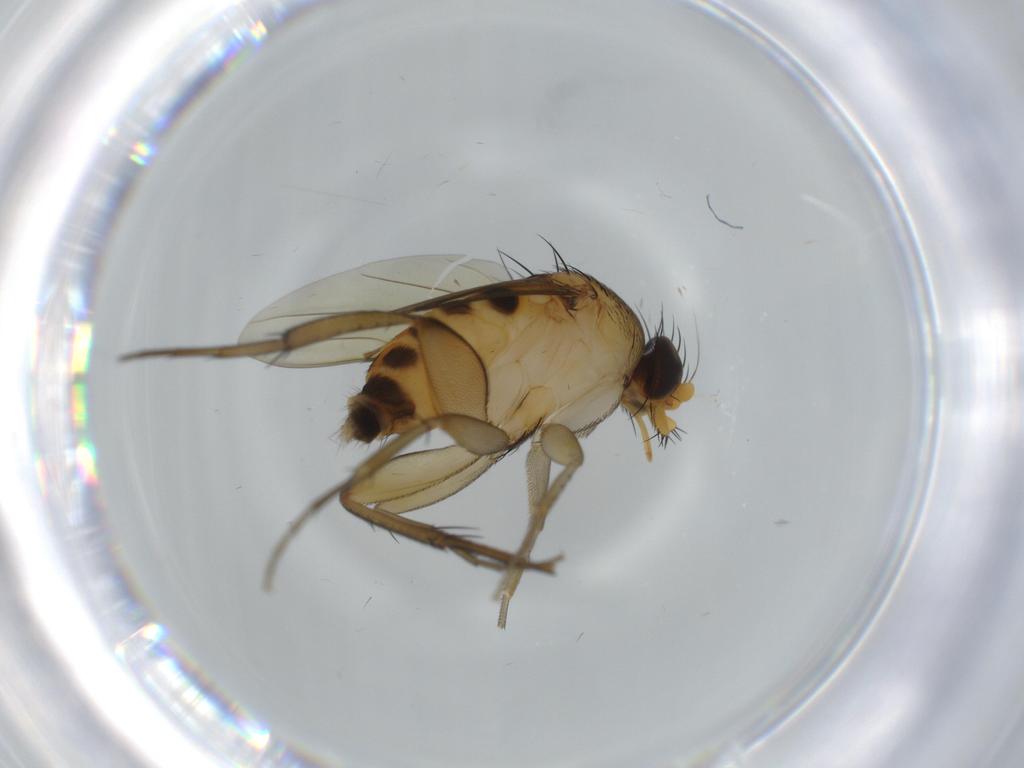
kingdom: Animalia
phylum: Arthropoda
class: Insecta
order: Diptera
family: Phoridae
